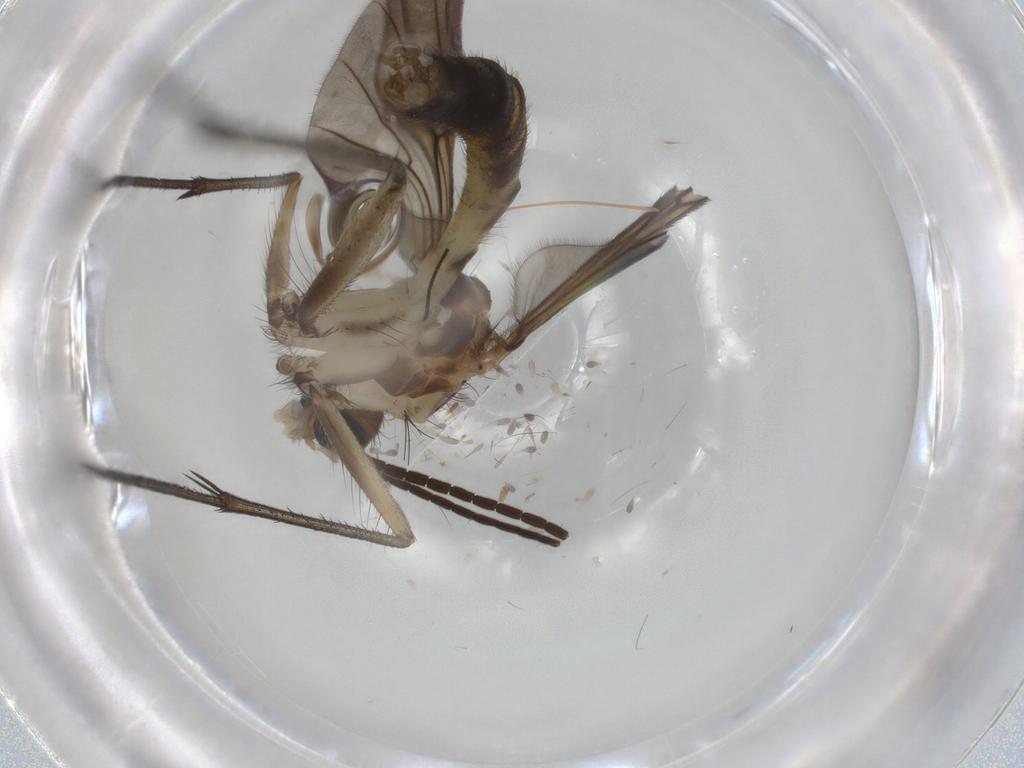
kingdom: Animalia
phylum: Arthropoda
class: Insecta
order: Diptera
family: Mycetophilidae
